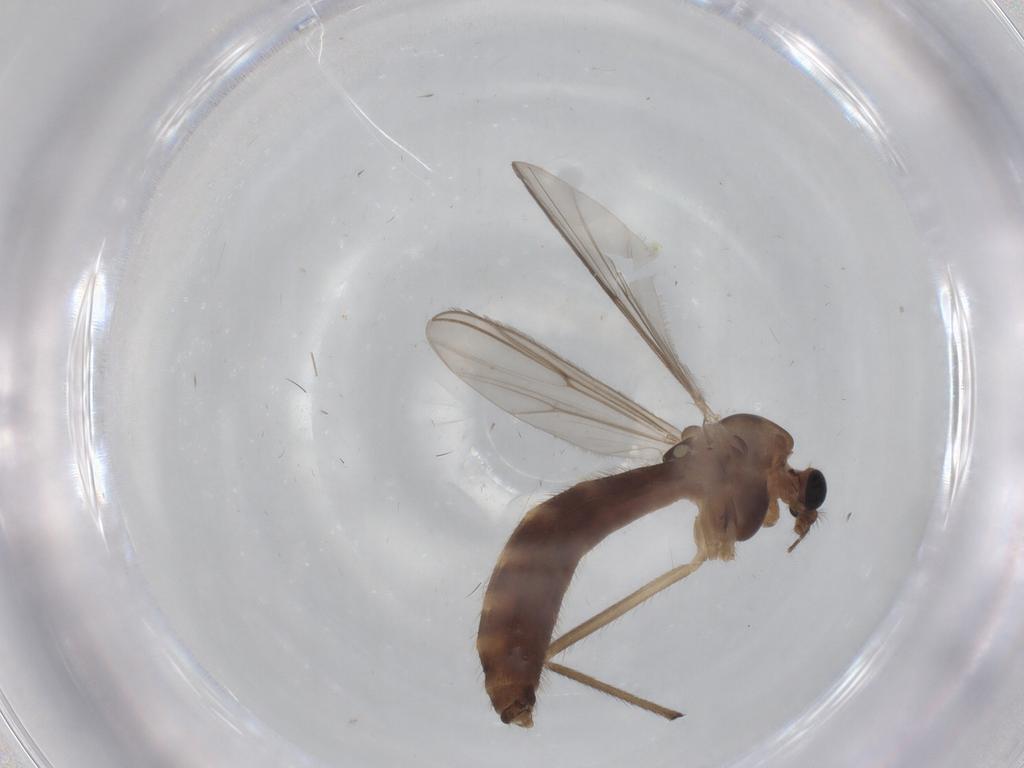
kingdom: Animalia
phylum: Arthropoda
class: Insecta
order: Diptera
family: Chironomidae
